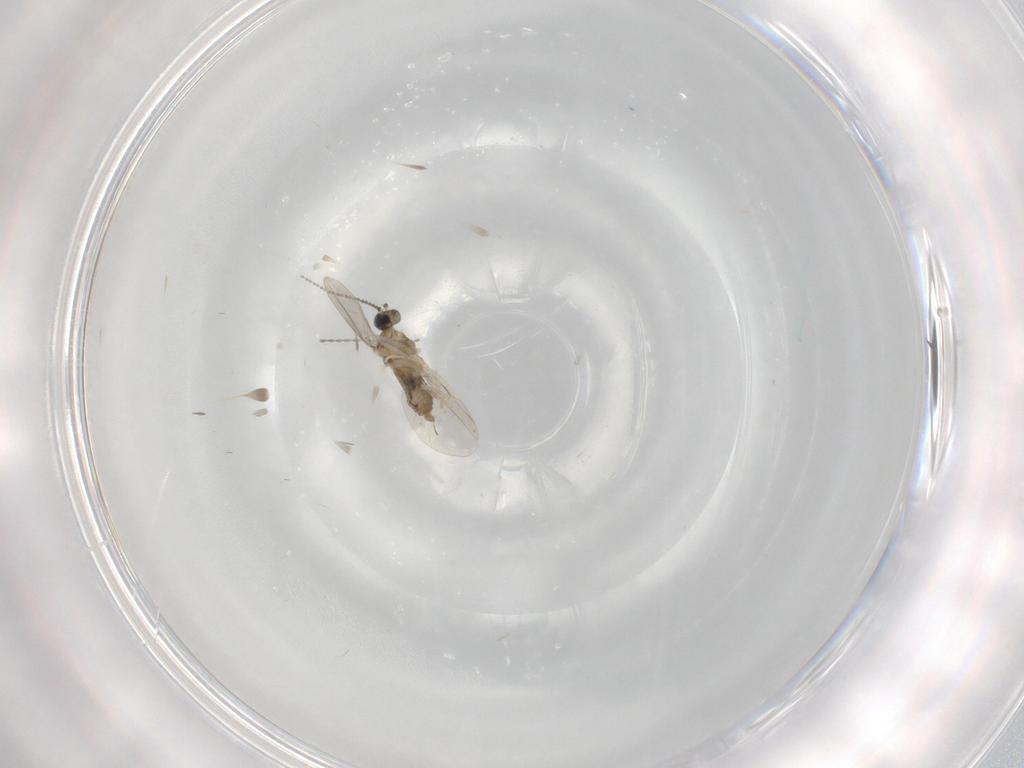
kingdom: Animalia
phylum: Arthropoda
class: Insecta
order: Diptera
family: Cecidomyiidae
